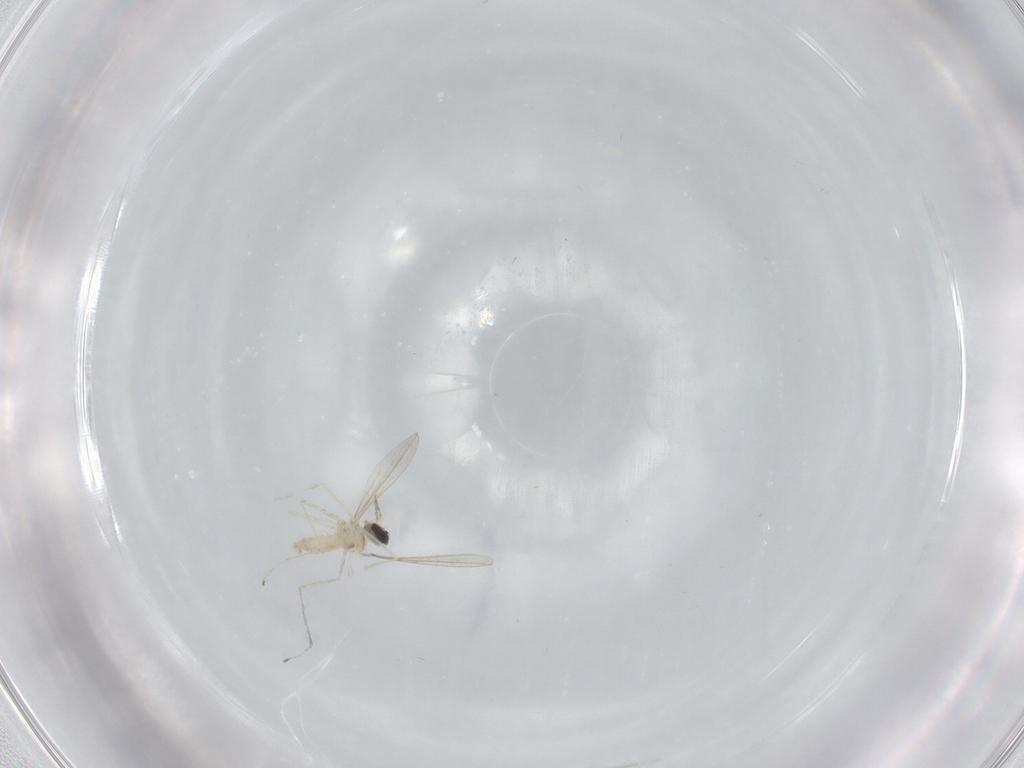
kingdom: Animalia
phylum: Arthropoda
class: Insecta
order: Diptera
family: Cecidomyiidae
